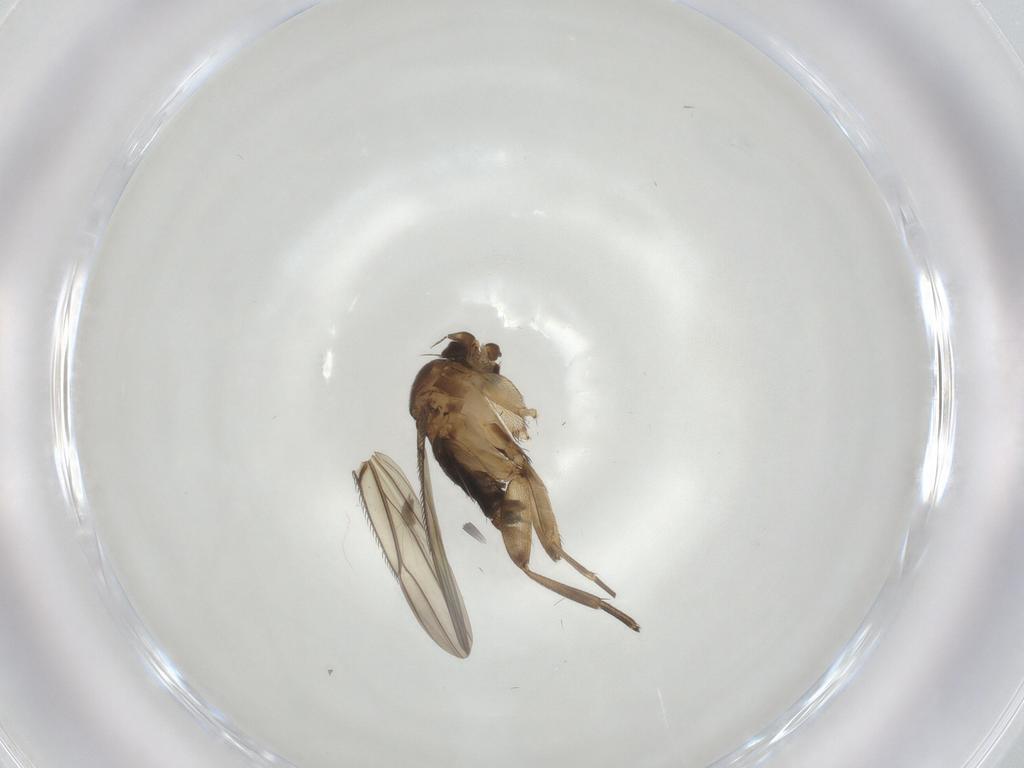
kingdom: Animalia
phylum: Arthropoda
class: Insecta
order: Diptera
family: Phoridae
